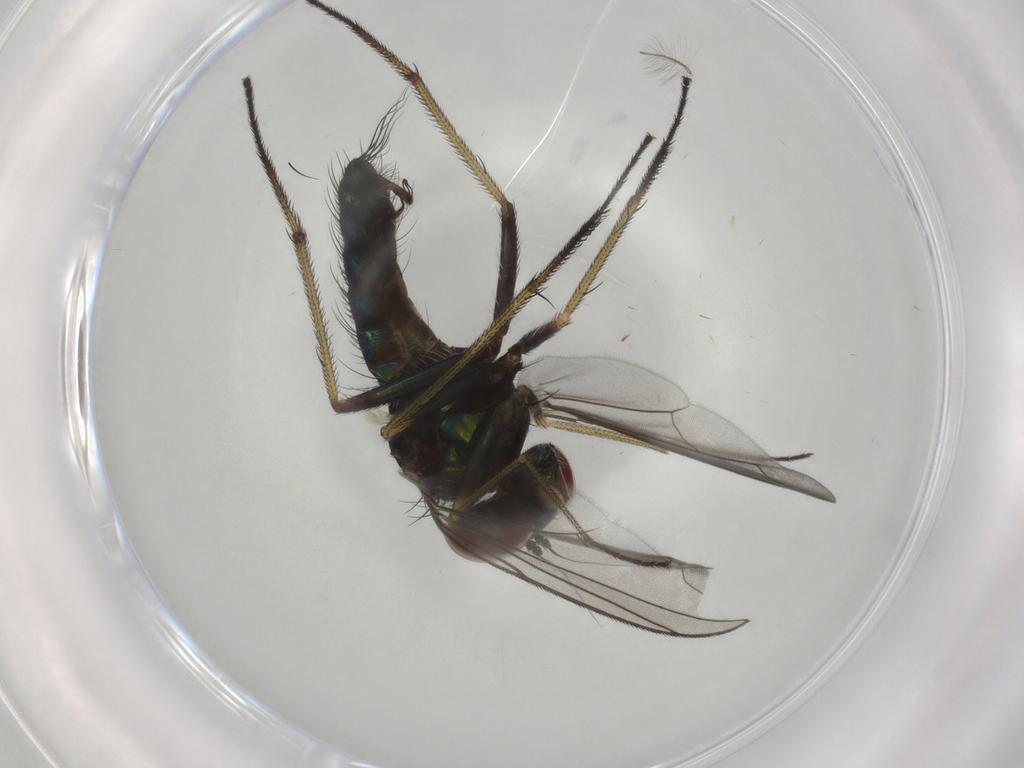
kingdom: Animalia
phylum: Arthropoda
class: Insecta
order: Diptera
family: Dolichopodidae
